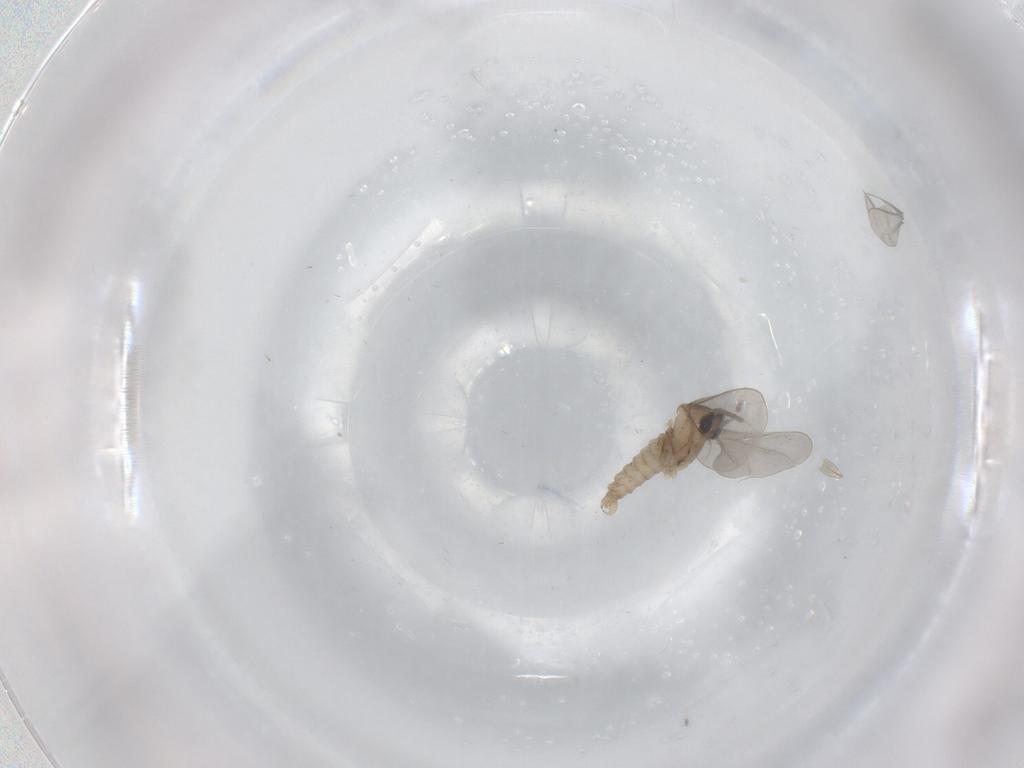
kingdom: Animalia
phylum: Arthropoda
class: Insecta
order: Diptera
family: Cecidomyiidae
